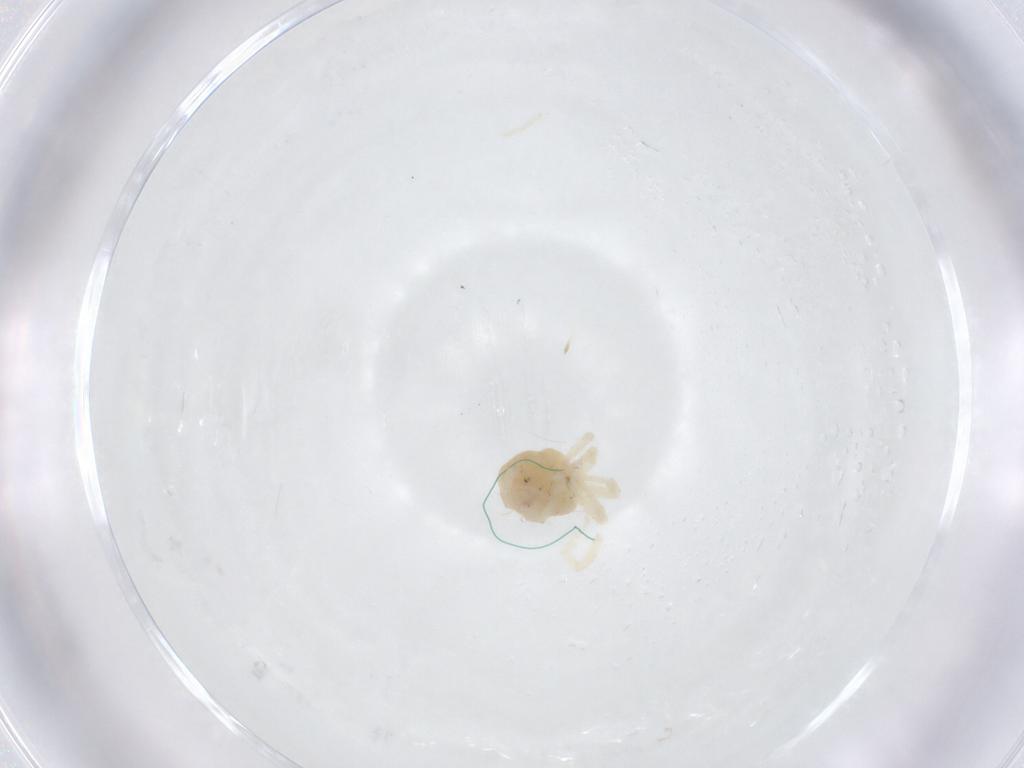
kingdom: Animalia
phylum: Arthropoda
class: Arachnida
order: Trombidiformes
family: Anystidae
